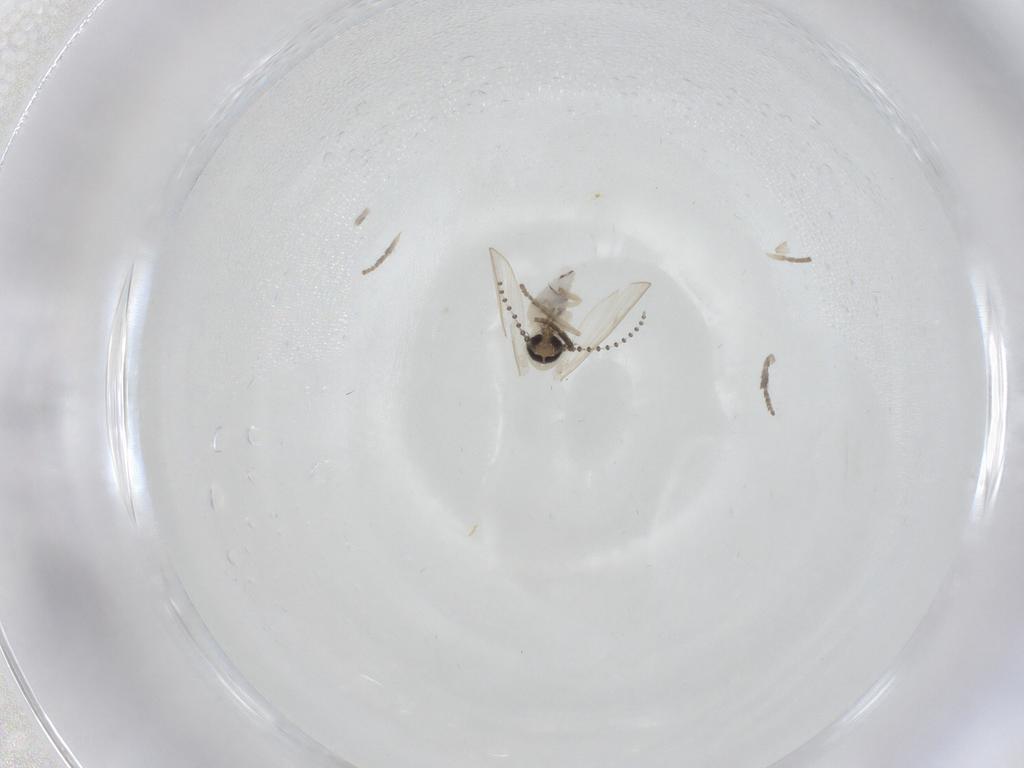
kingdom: Animalia
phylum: Arthropoda
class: Insecta
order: Diptera
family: Psychodidae
